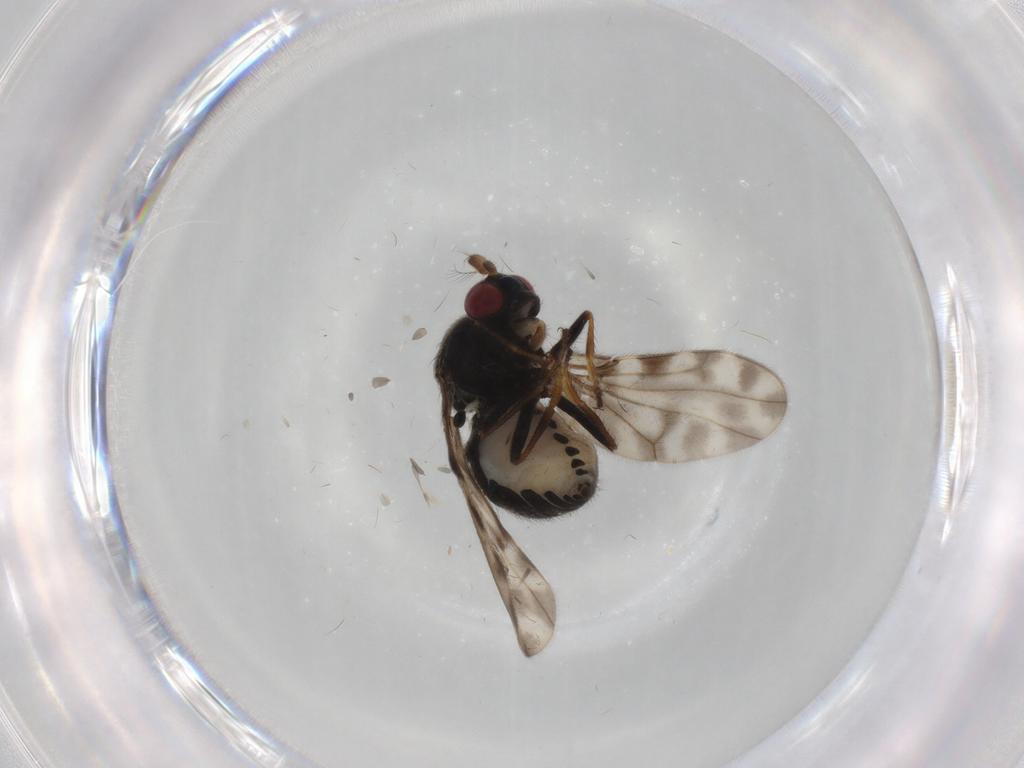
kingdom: Animalia
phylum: Arthropoda
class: Insecta
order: Diptera
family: Ephydridae
